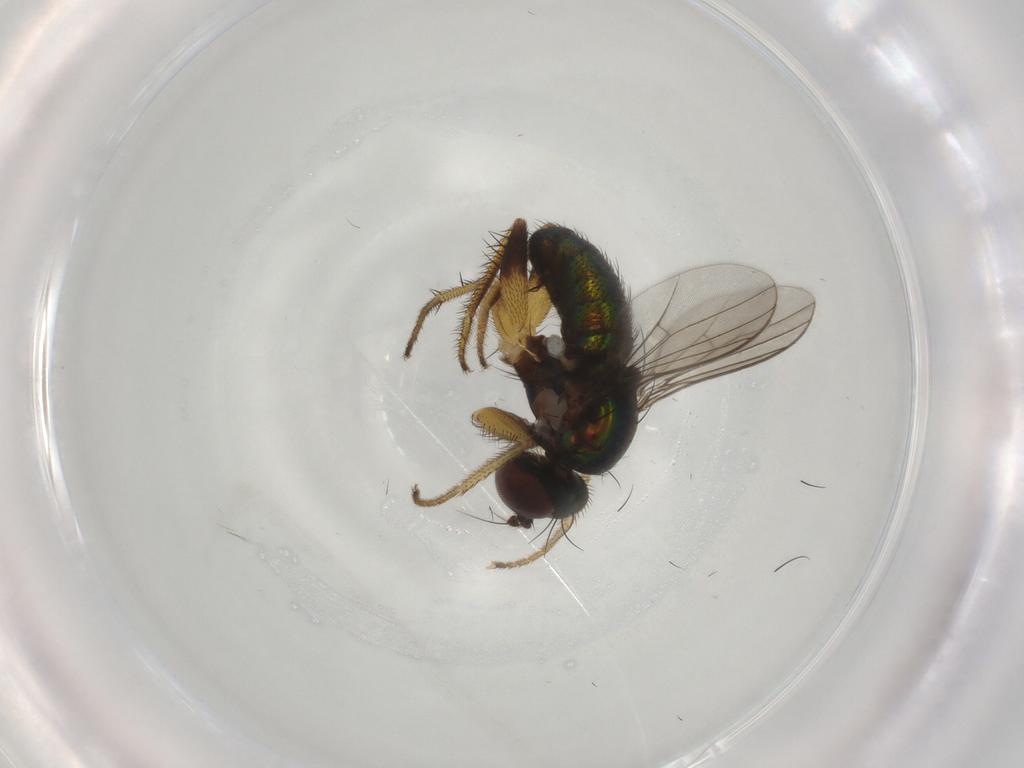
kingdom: Animalia
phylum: Arthropoda
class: Insecta
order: Diptera
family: Dolichopodidae
